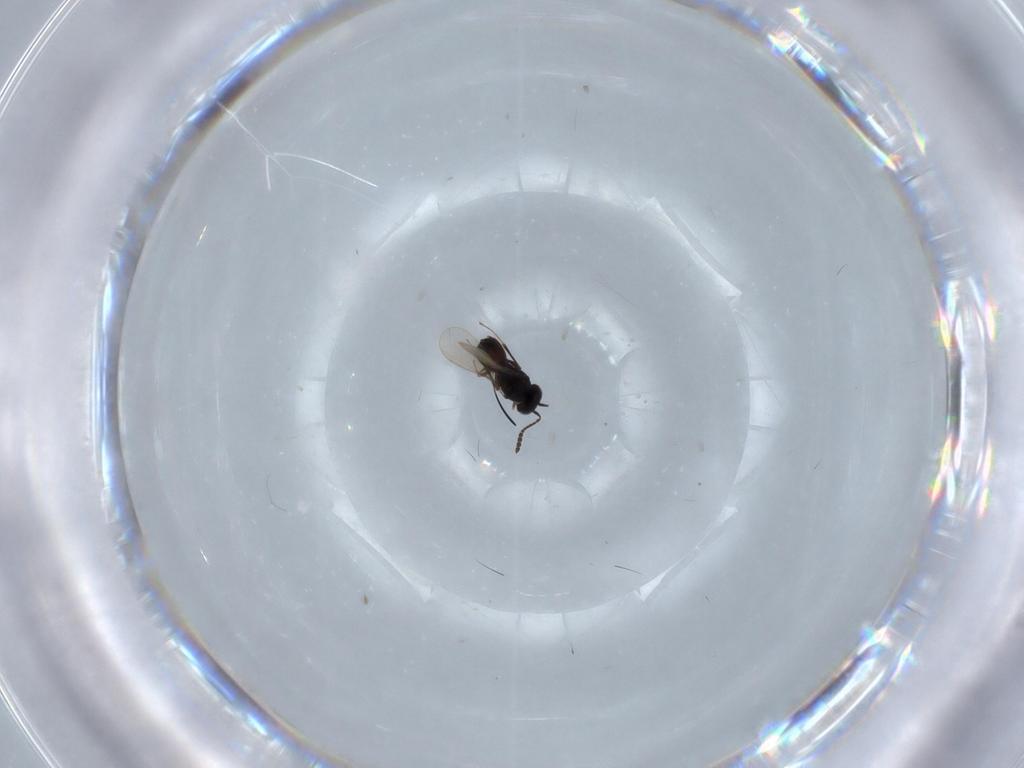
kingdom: Animalia
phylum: Arthropoda
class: Insecta
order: Hymenoptera
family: Scelionidae
